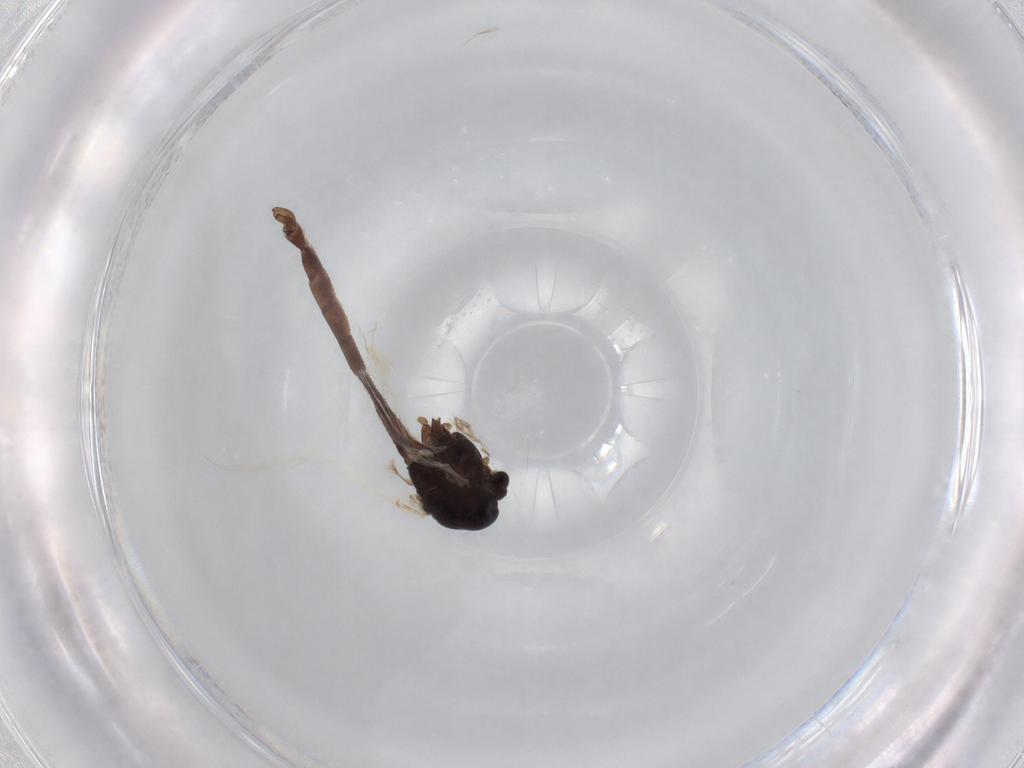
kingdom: Animalia
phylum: Arthropoda
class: Insecta
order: Diptera
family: Chironomidae
